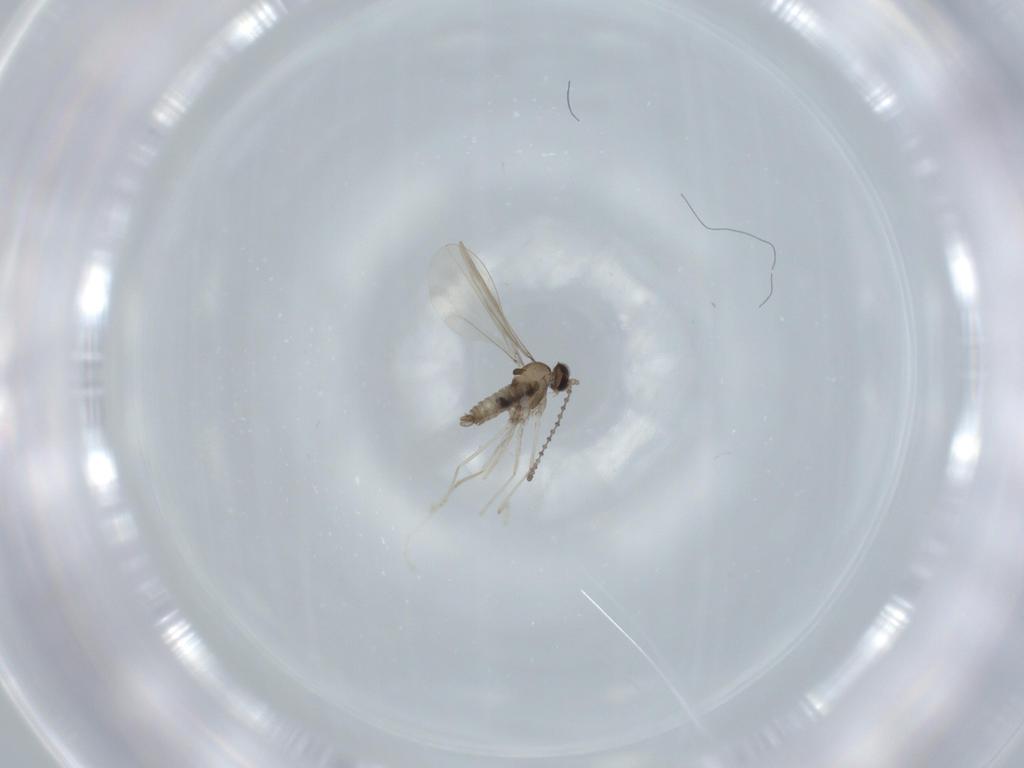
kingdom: Animalia
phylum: Arthropoda
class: Insecta
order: Diptera
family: Cecidomyiidae
